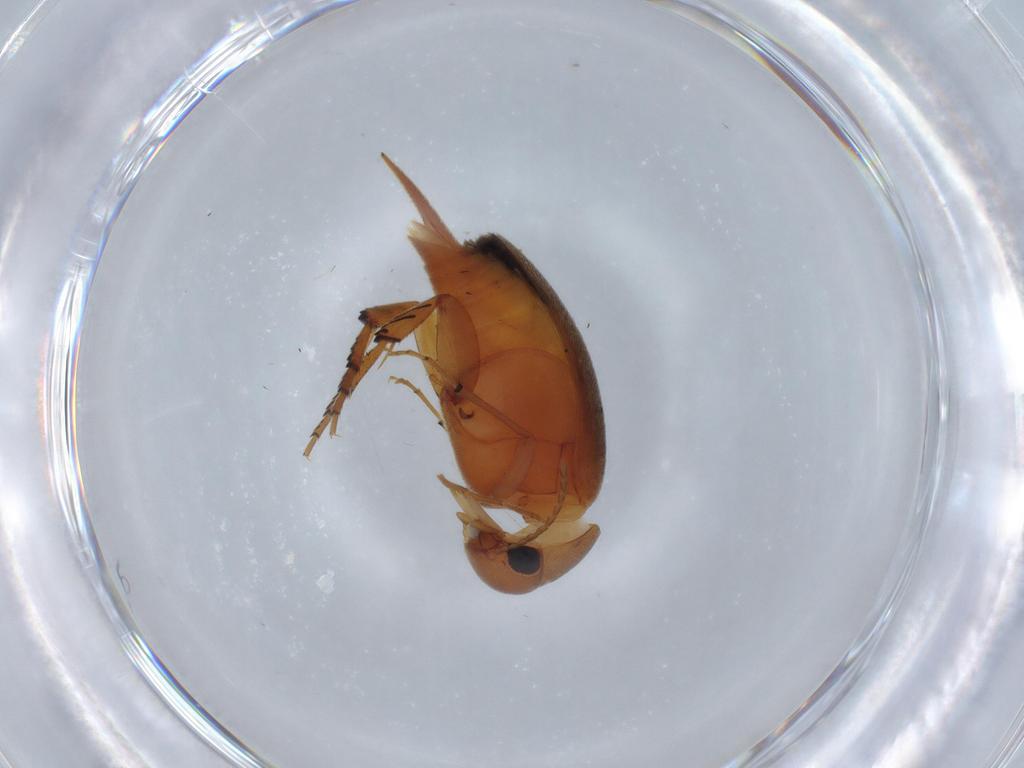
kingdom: Animalia
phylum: Arthropoda
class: Insecta
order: Coleoptera
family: Mordellidae
